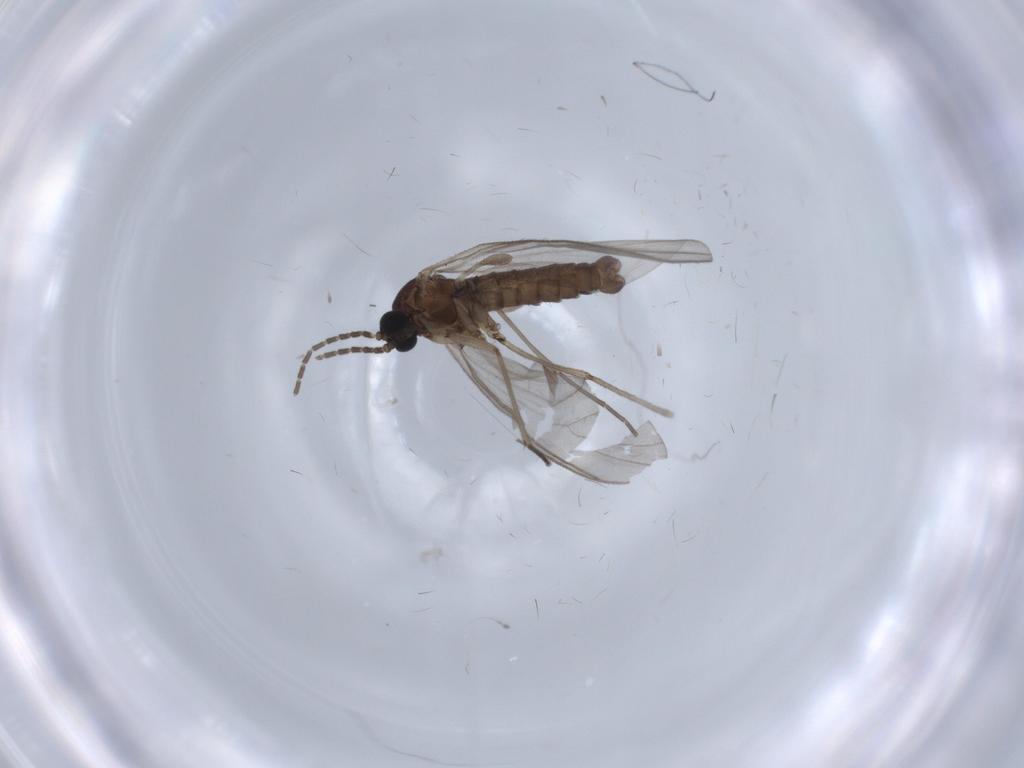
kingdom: Animalia
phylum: Arthropoda
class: Insecta
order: Diptera
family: Sciaridae
